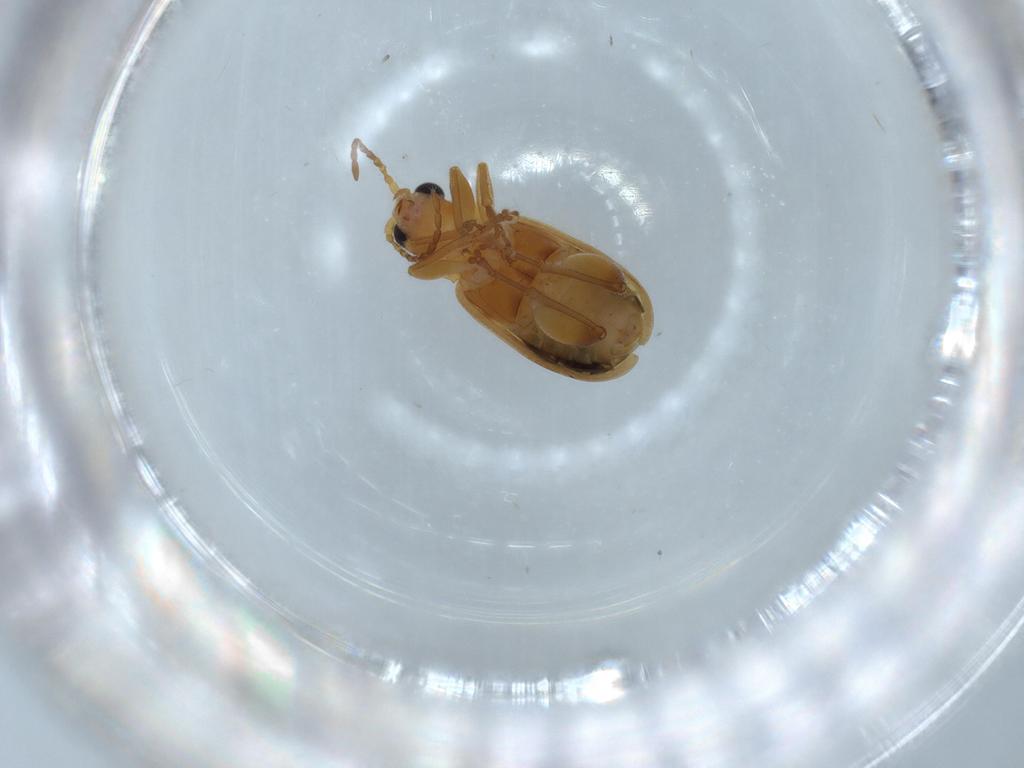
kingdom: Animalia
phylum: Arthropoda
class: Insecta
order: Coleoptera
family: Chrysomelidae
